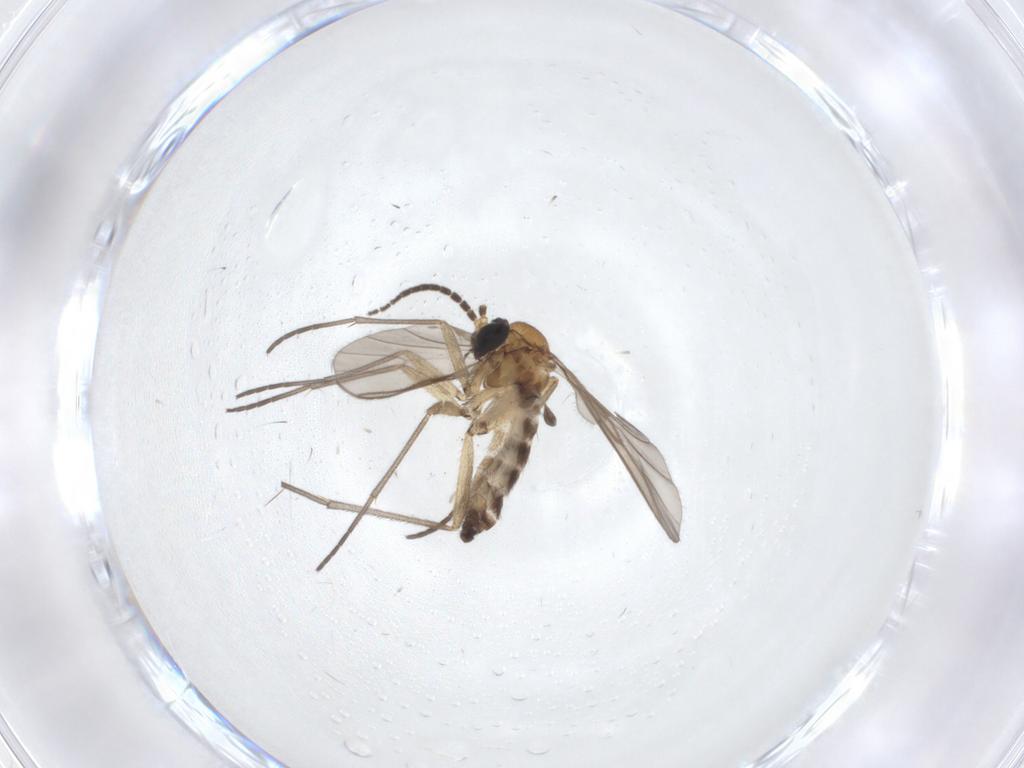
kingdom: Animalia
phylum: Arthropoda
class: Insecta
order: Diptera
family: Sciaridae
